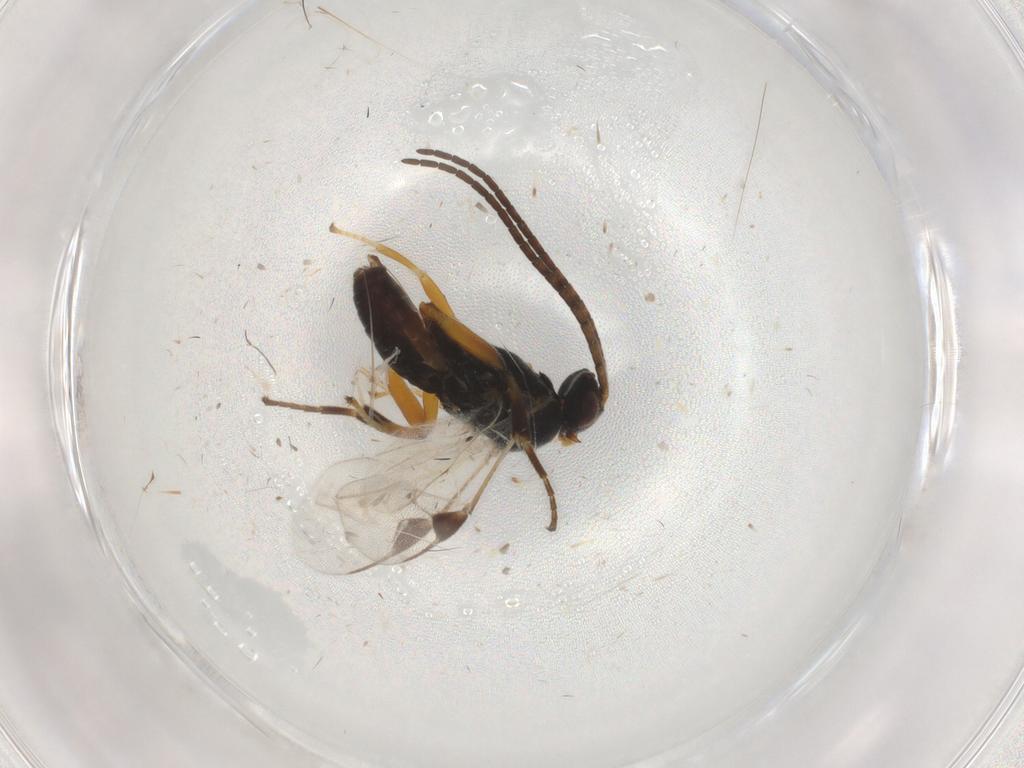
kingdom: Animalia
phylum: Arthropoda
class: Insecta
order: Hymenoptera
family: Braconidae
